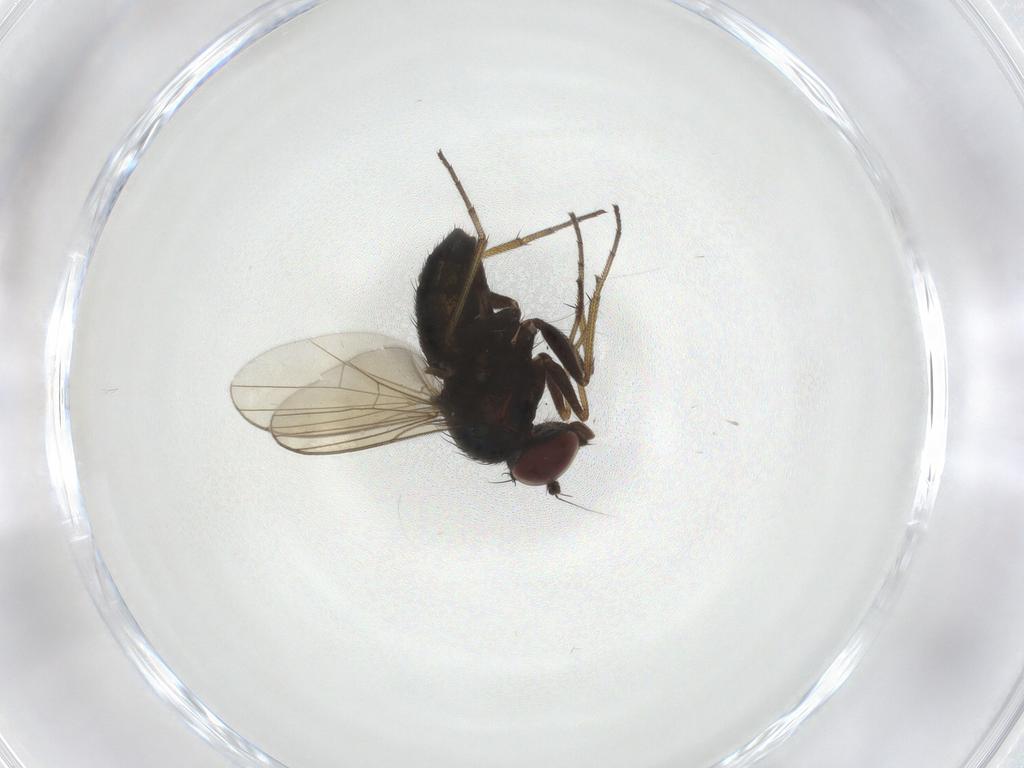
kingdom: Animalia
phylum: Arthropoda
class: Insecta
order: Diptera
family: Dolichopodidae
